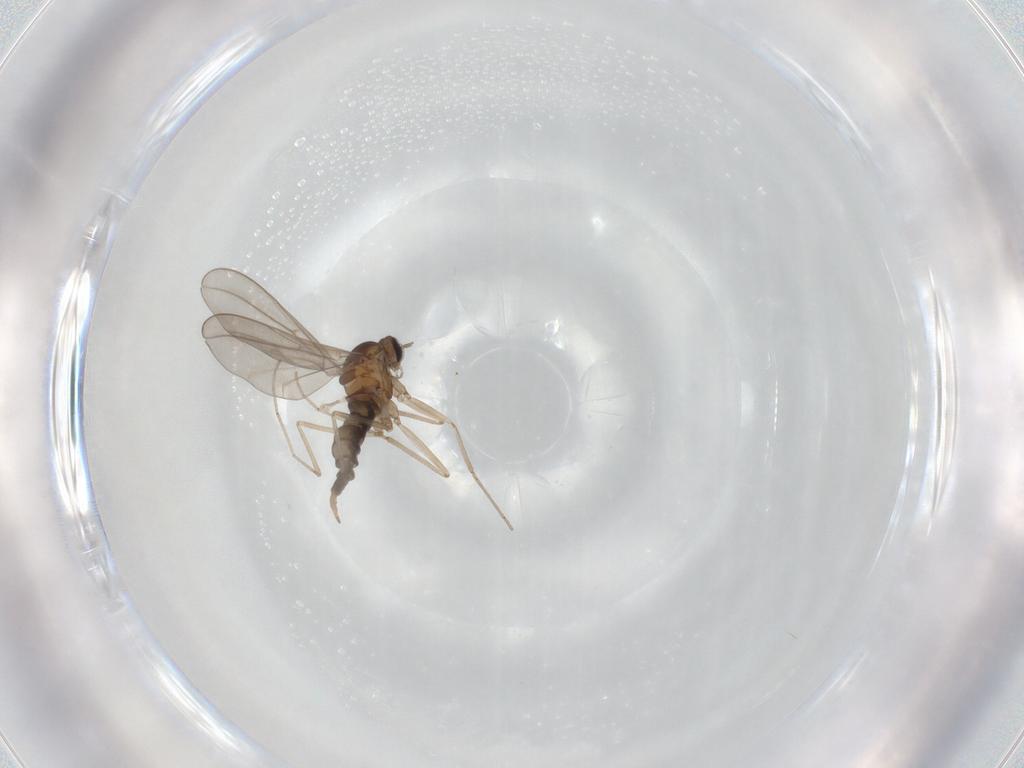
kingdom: Animalia
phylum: Arthropoda
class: Insecta
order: Diptera
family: Cecidomyiidae
